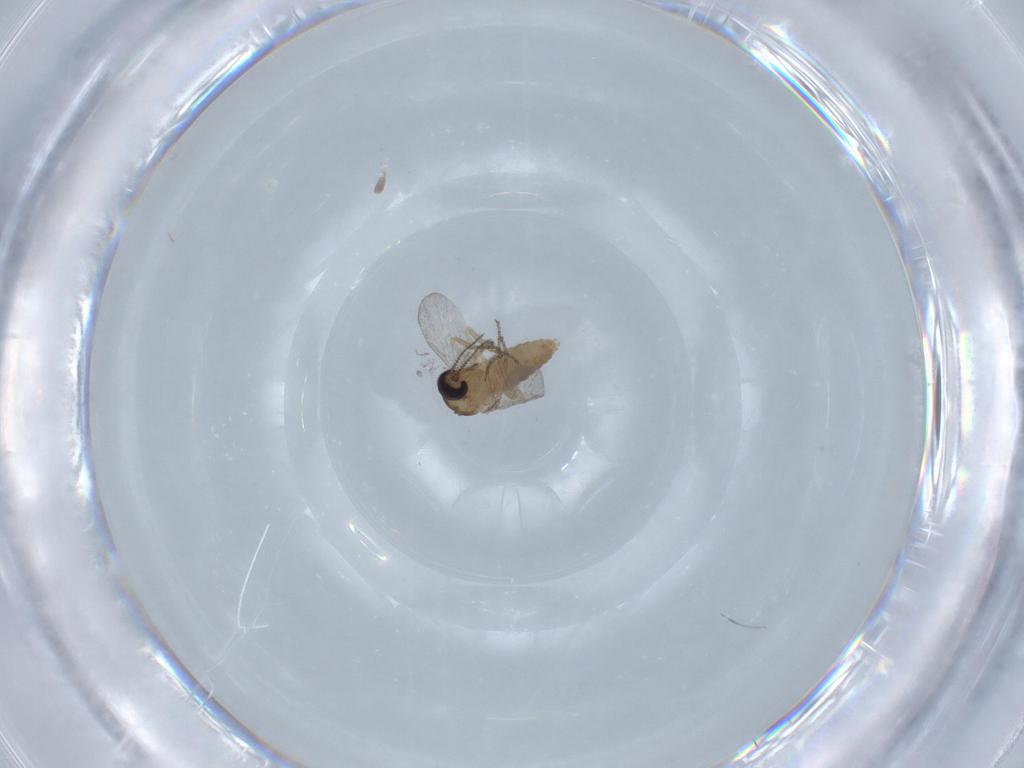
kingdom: Animalia
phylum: Arthropoda
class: Insecta
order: Diptera
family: Ceratopogonidae
